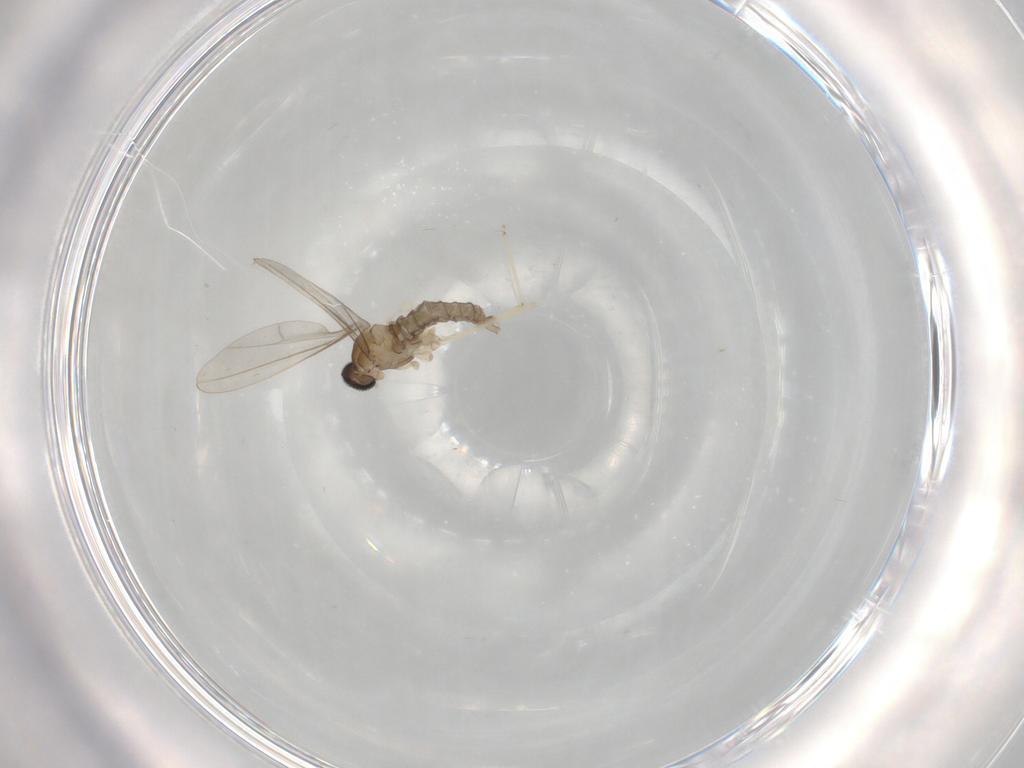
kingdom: Animalia
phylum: Arthropoda
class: Insecta
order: Diptera
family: Cecidomyiidae
